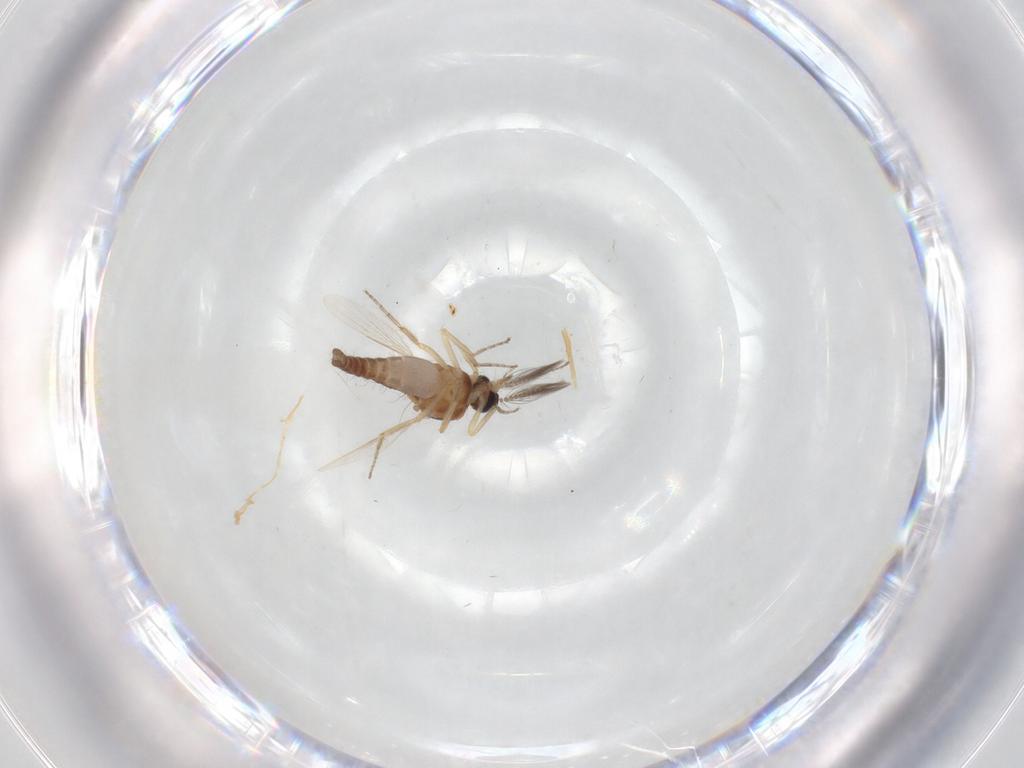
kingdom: Animalia
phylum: Arthropoda
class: Insecta
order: Diptera
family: Ceratopogonidae
